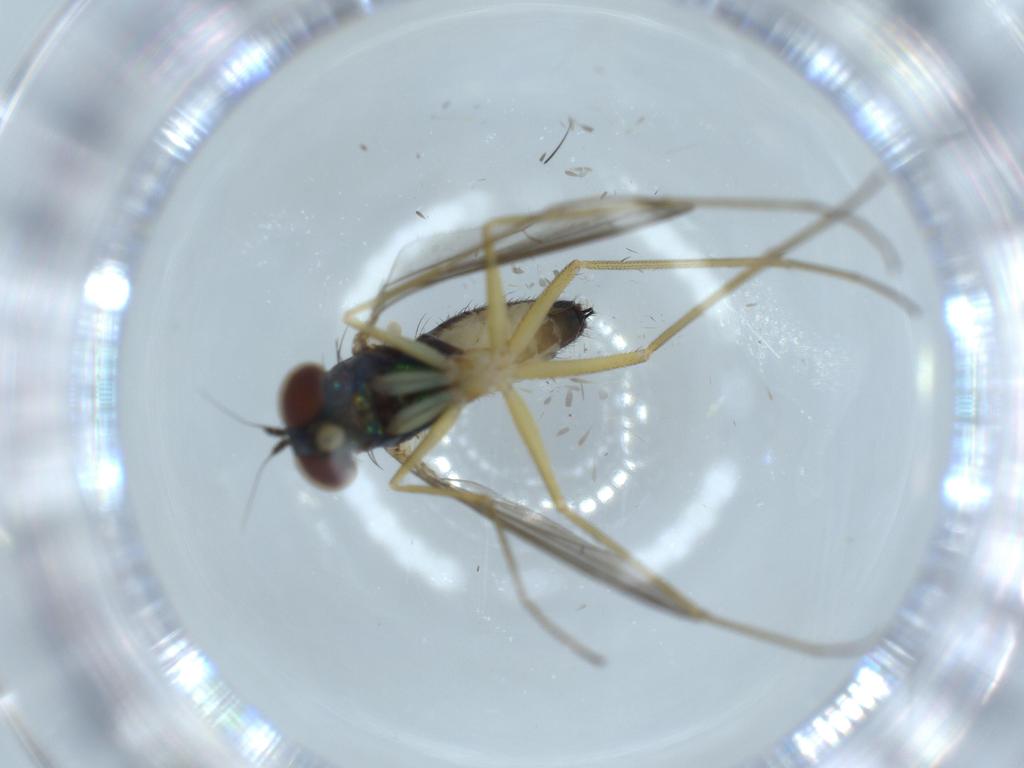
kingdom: Animalia
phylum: Arthropoda
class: Insecta
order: Diptera
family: Dolichopodidae
